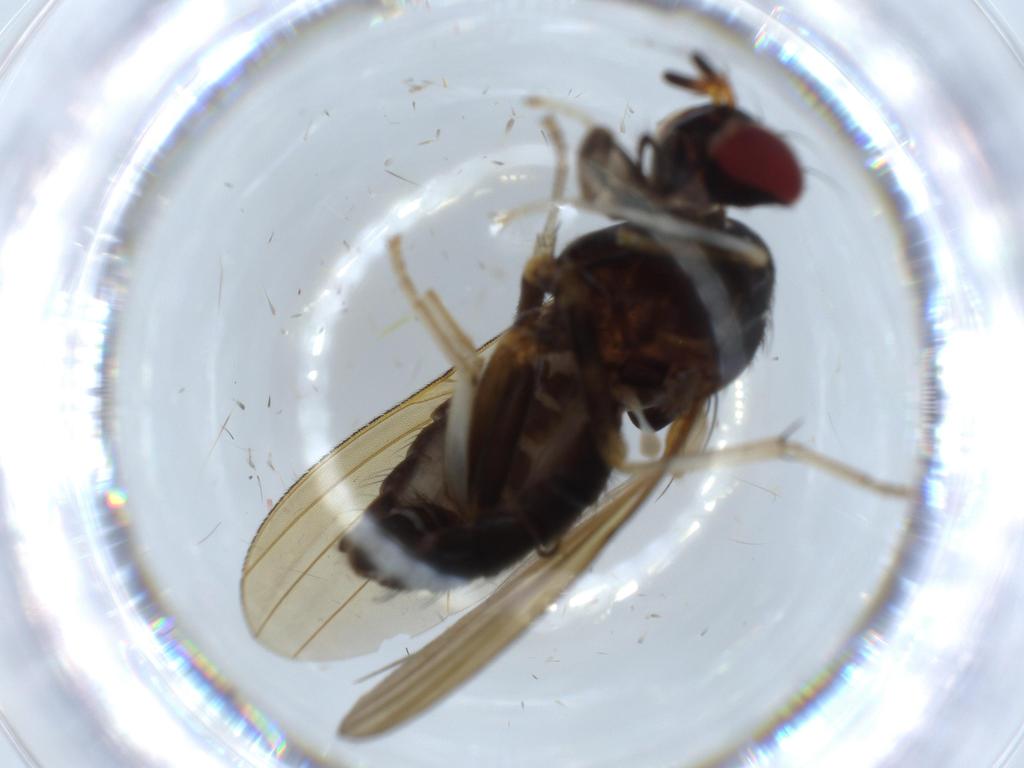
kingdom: Animalia
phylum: Arthropoda
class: Insecta
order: Diptera
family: Sciaridae
